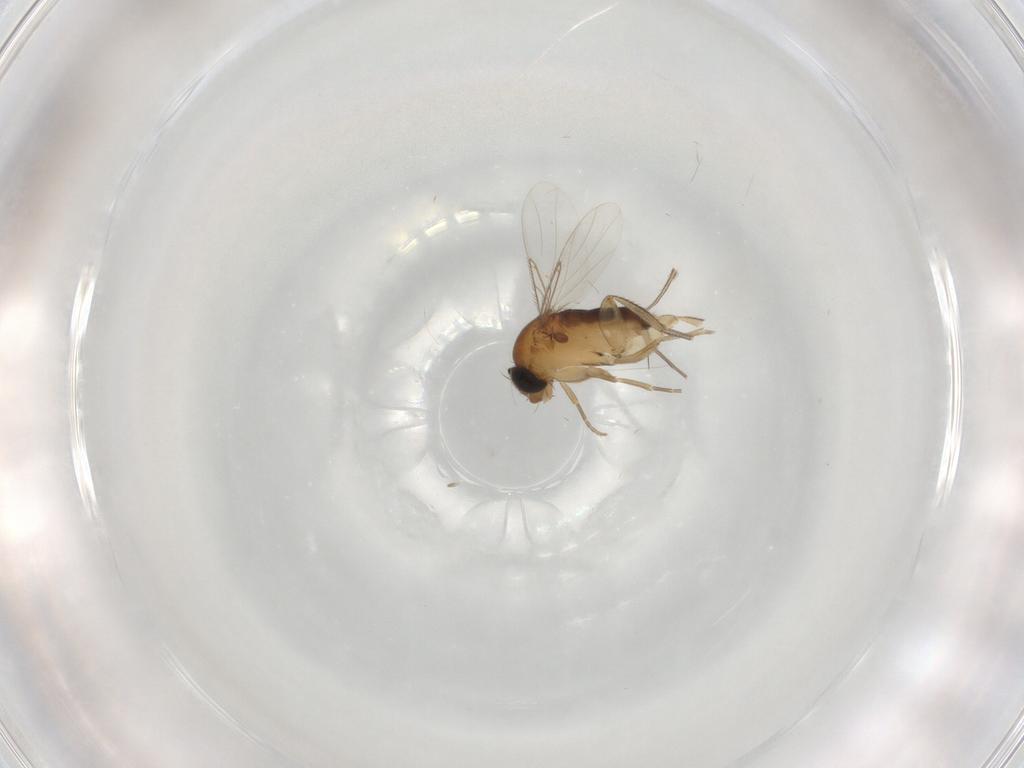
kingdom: Animalia
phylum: Arthropoda
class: Insecta
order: Diptera
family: Phoridae
